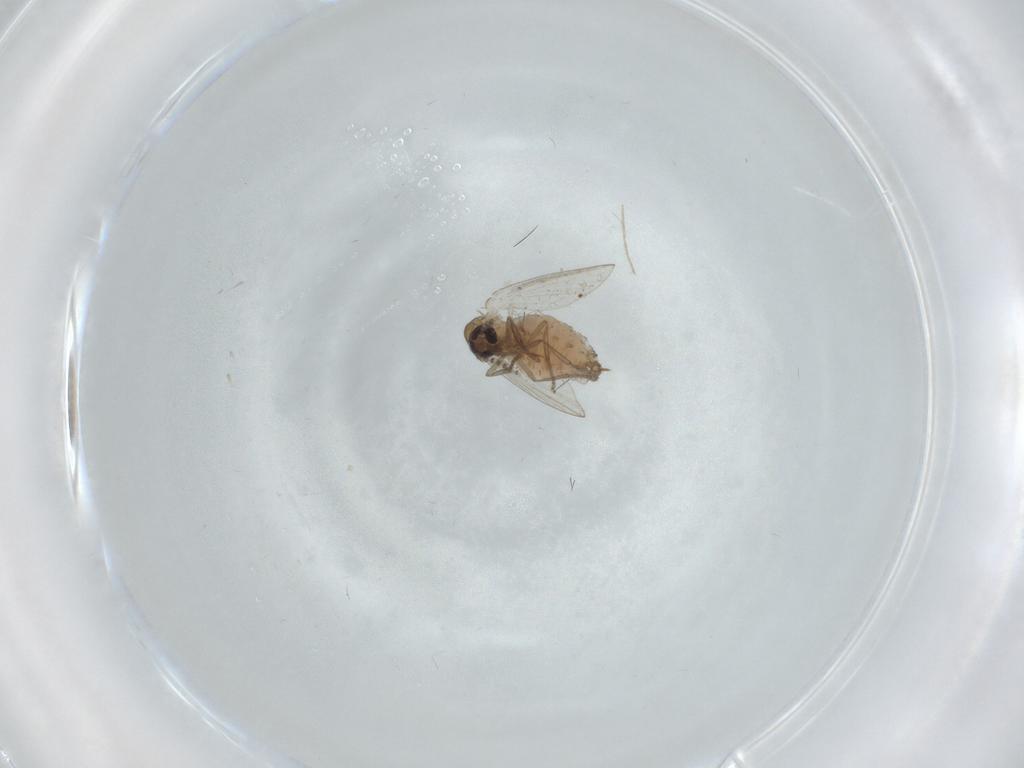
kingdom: Animalia
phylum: Arthropoda
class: Insecta
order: Diptera
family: Psychodidae
